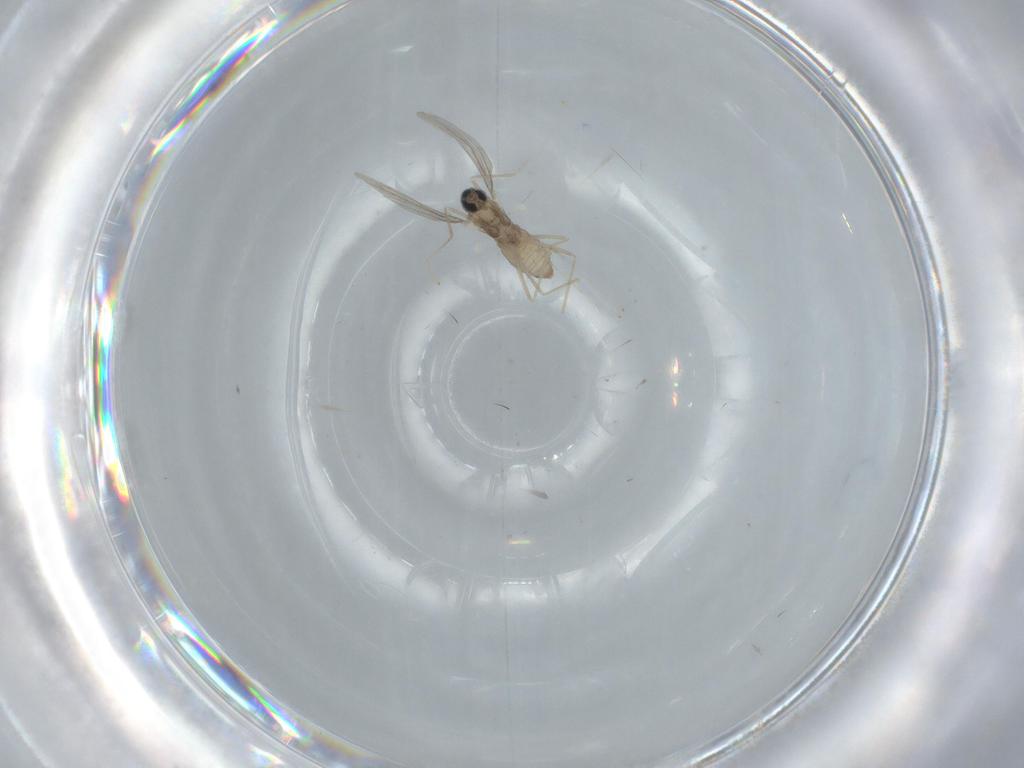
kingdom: Animalia
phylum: Arthropoda
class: Insecta
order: Diptera
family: Cecidomyiidae
